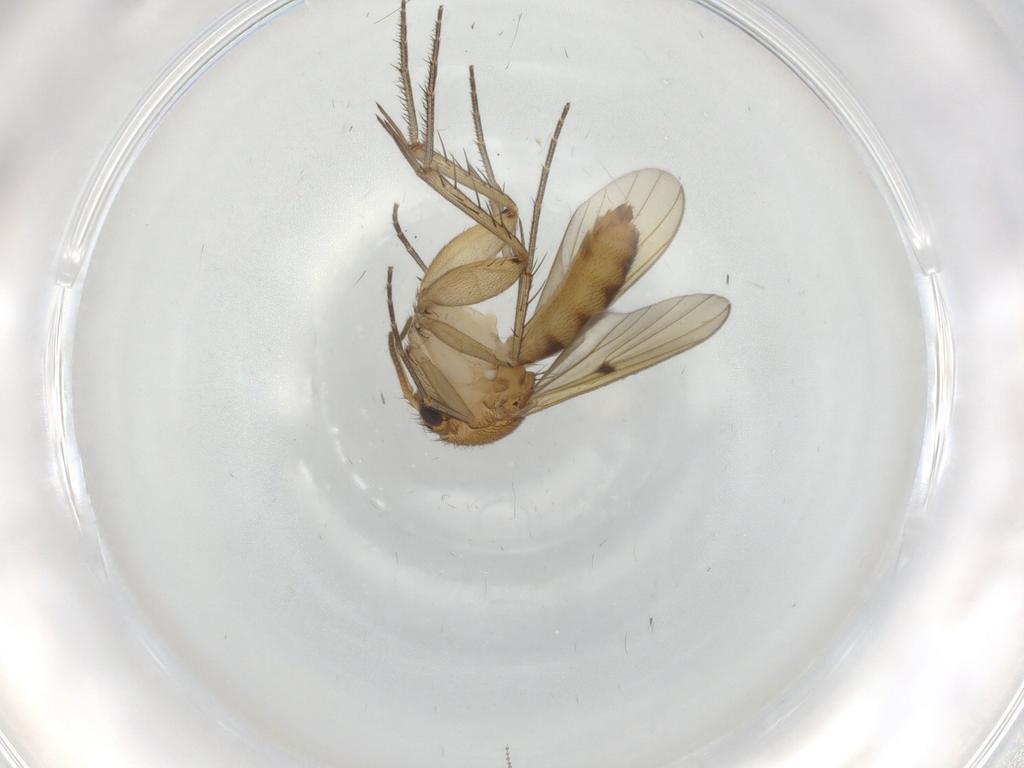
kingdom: Animalia
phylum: Arthropoda
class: Insecta
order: Diptera
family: Mycetophilidae
